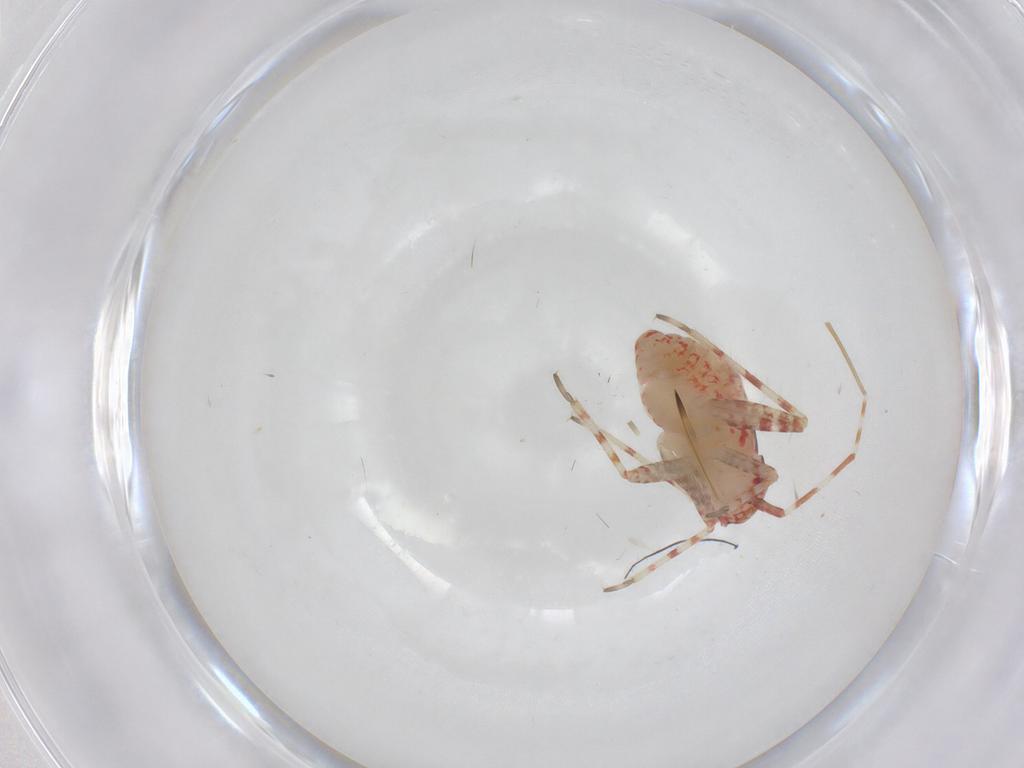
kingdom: Animalia
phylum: Arthropoda
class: Insecta
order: Hemiptera
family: Miridae
